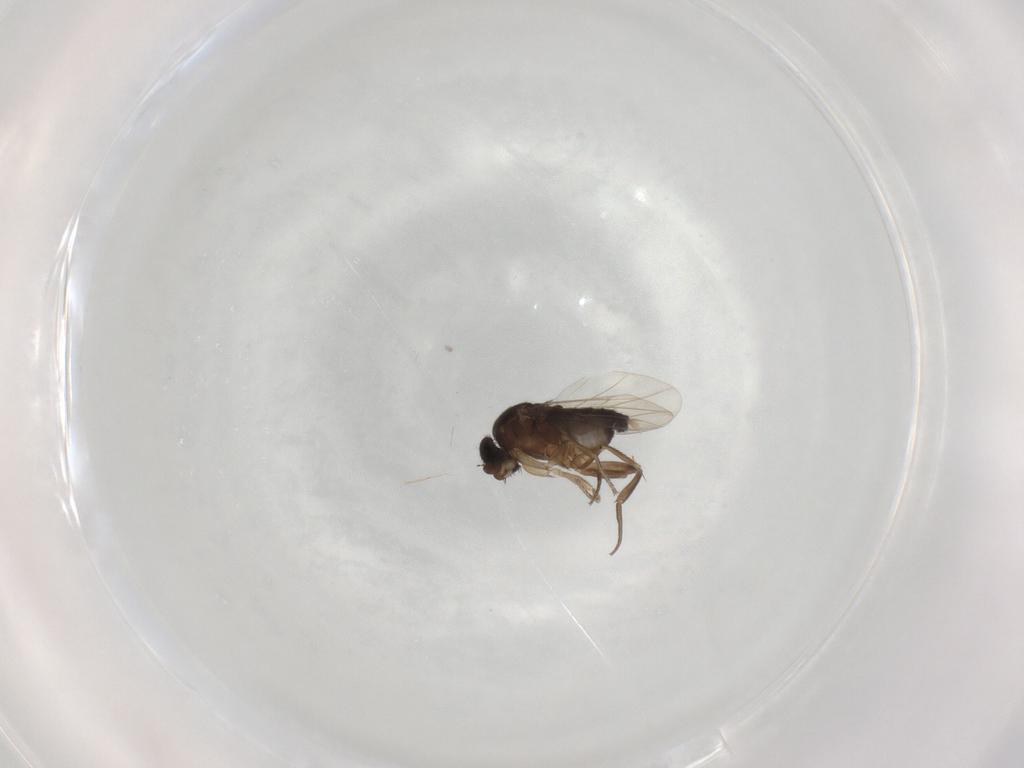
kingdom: Animalia
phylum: Arthropoda
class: Insecta
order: Diptera
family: Phoridae
